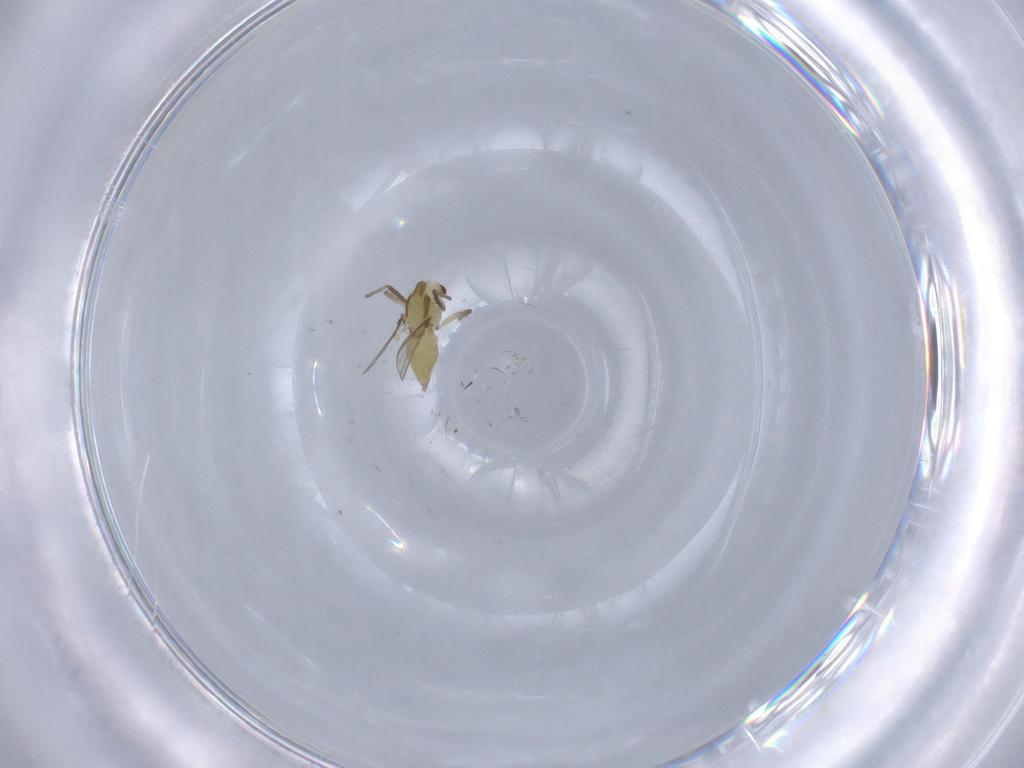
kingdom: Animalia
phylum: Arthropoda
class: Insecta
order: Diptera
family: Chironomidae
